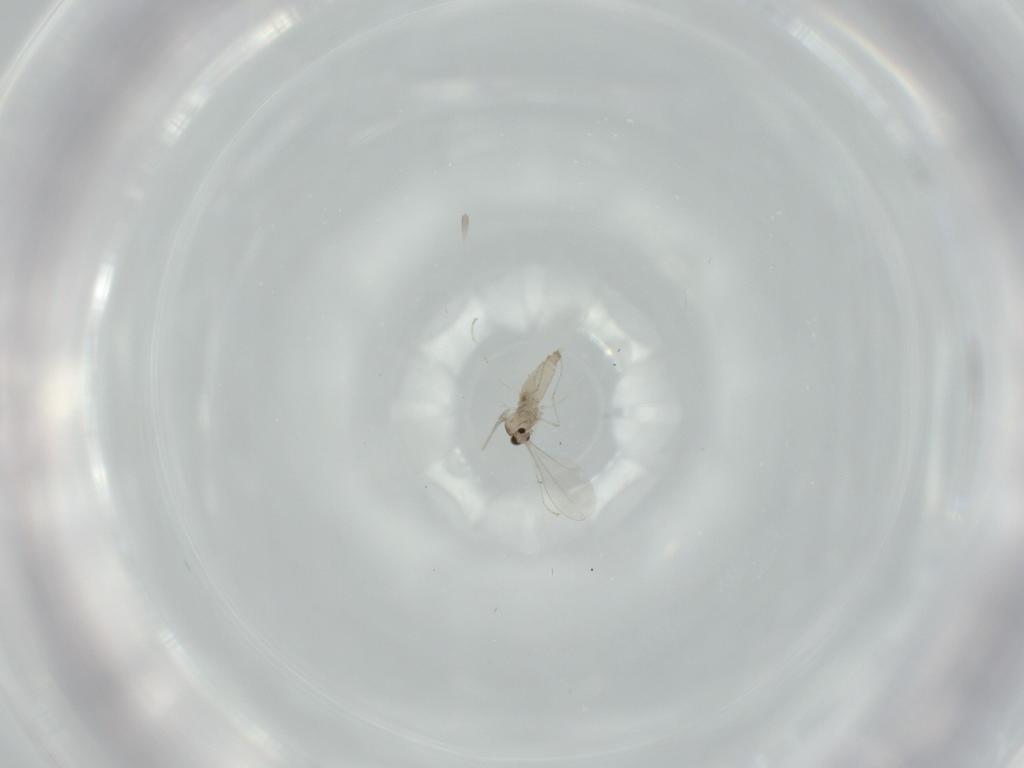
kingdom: Animalia
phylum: Arthropoda
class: Insecta
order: Diptera
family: Cecidomyiidae
